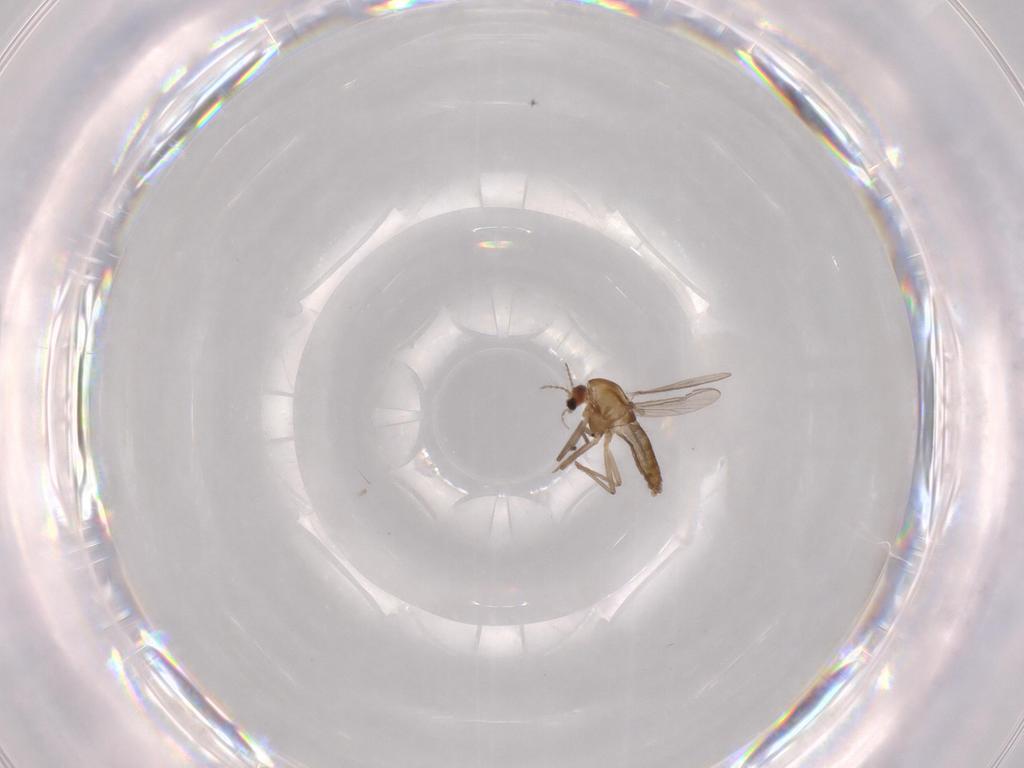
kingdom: Animalia
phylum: Arthropoda
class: Insecta
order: Diptera
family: Chironomidae
